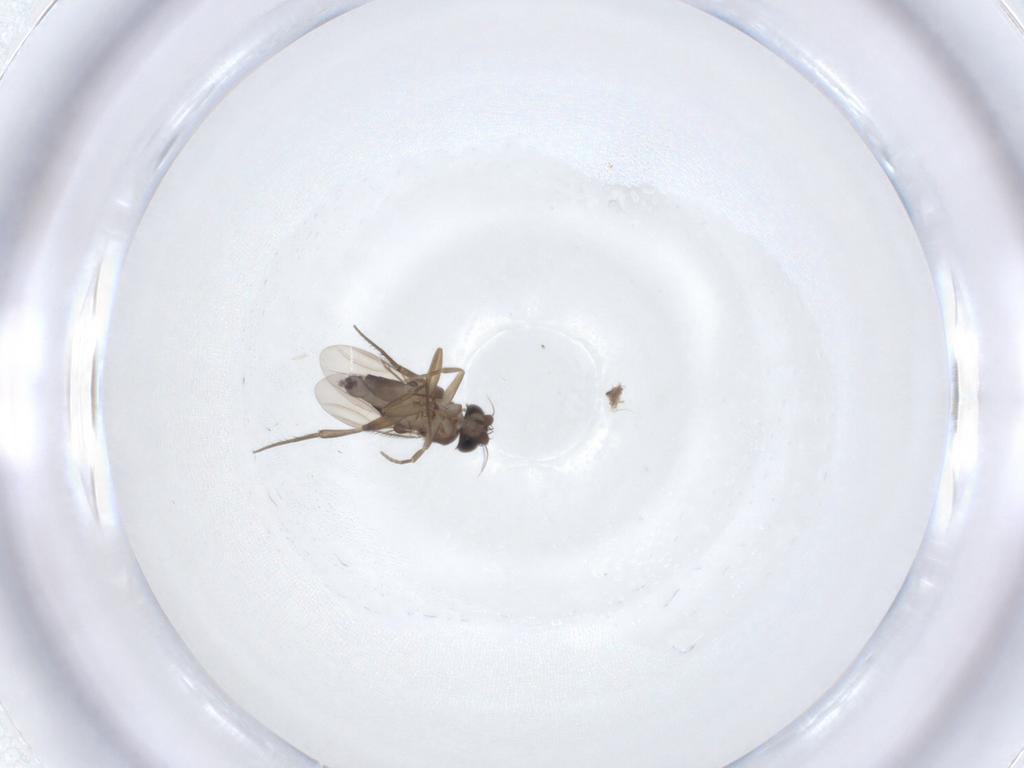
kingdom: Animalia
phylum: Arthropoda
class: Insecta
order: Diptera
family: Phoridae
